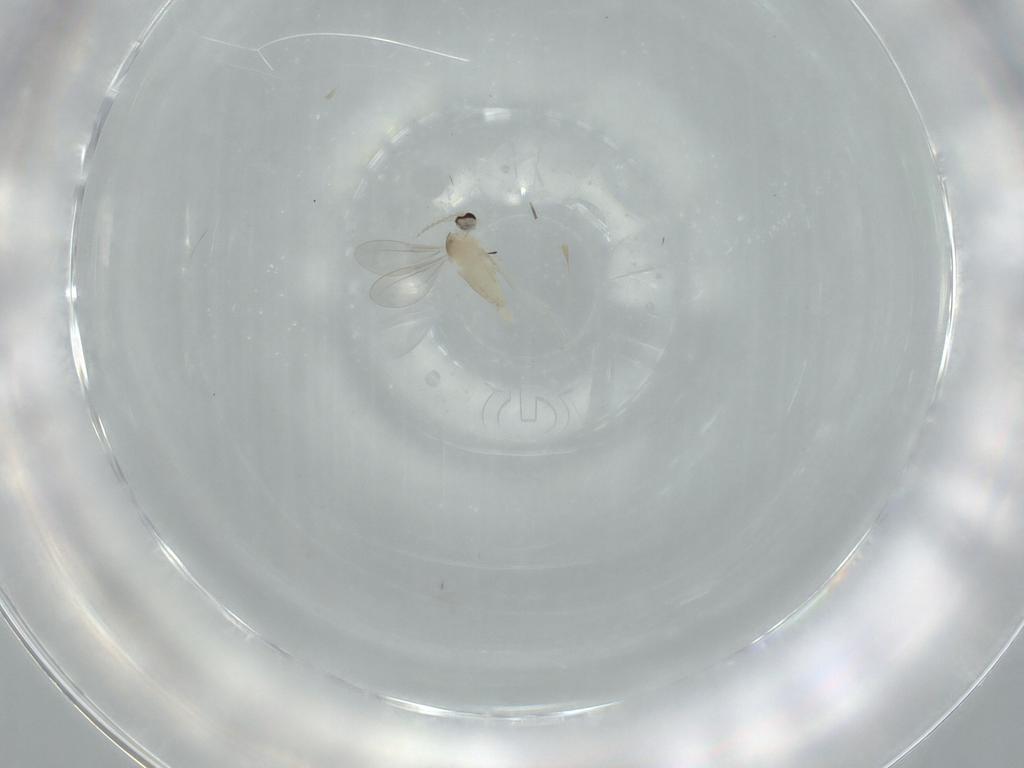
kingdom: Animalia
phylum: Arthropoda
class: Insecta
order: Diptera
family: Cecidomyiidae
